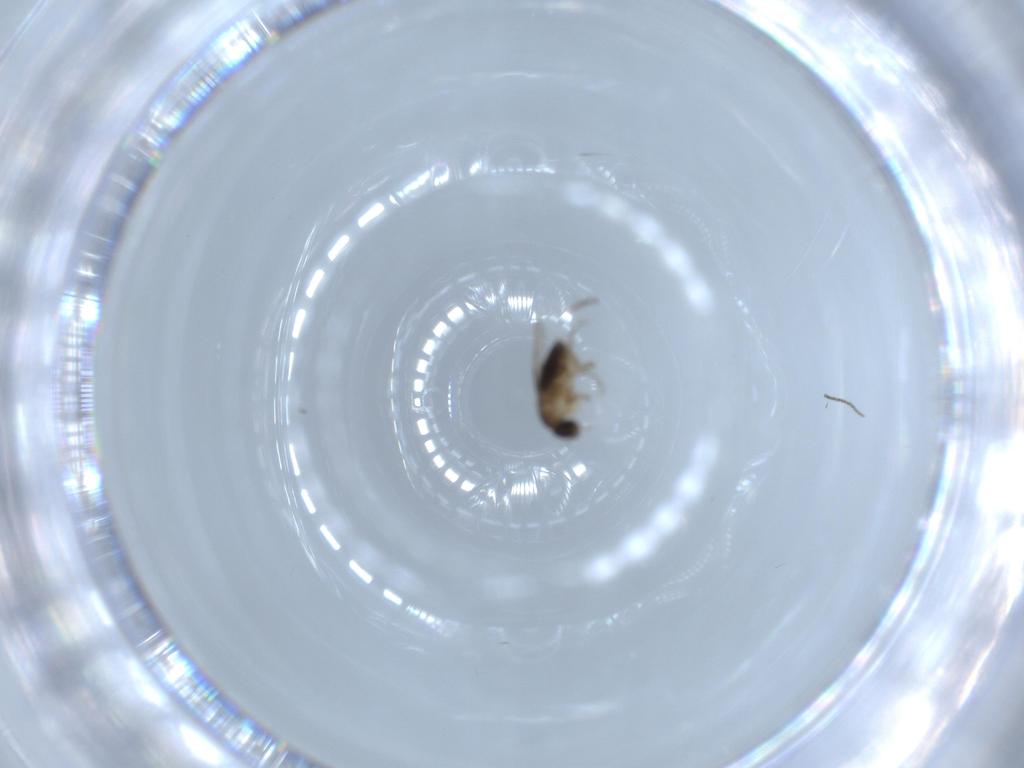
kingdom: Animalia
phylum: Arthropoda
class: Insecta
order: Diptera
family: Phoridae
